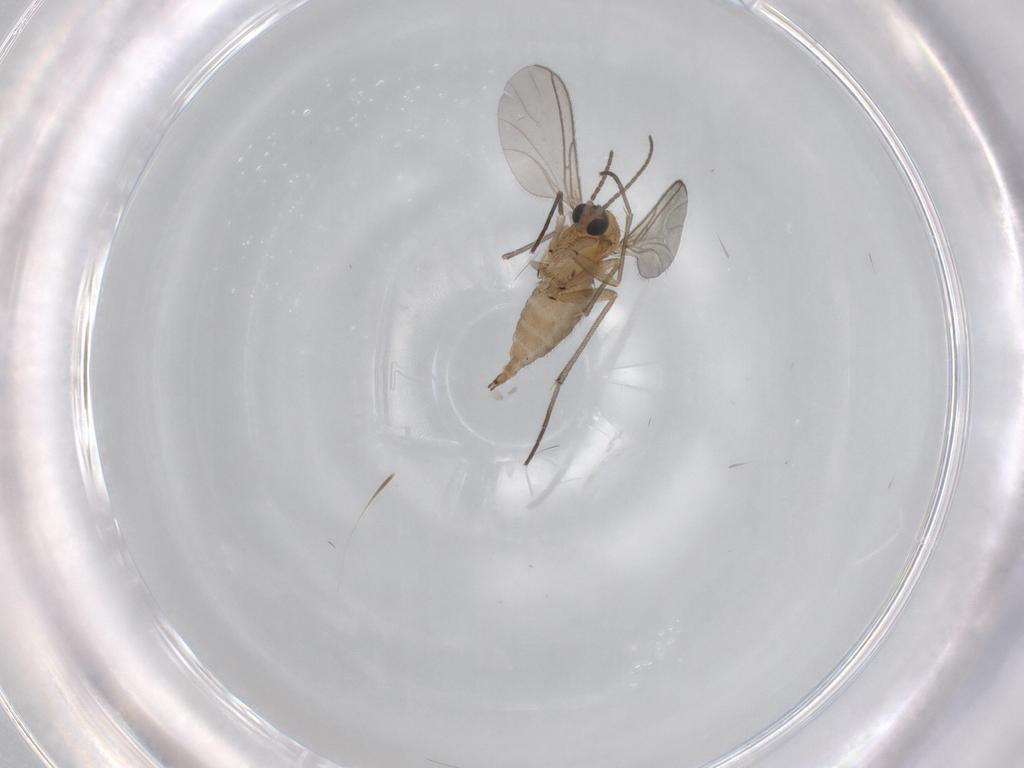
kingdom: Animalia
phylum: Arthropoda
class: Insecta
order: Diptera
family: Sciaridae
